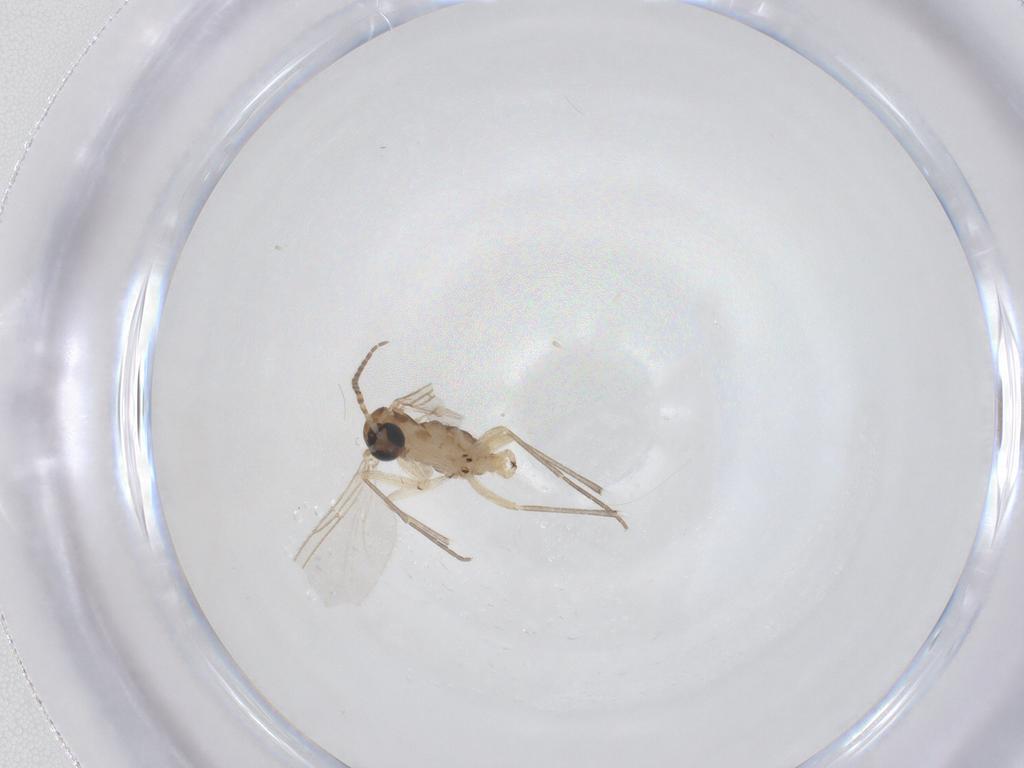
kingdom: Animalia
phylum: Arthropoda
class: Insecta
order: Diptera
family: Sciaridae
